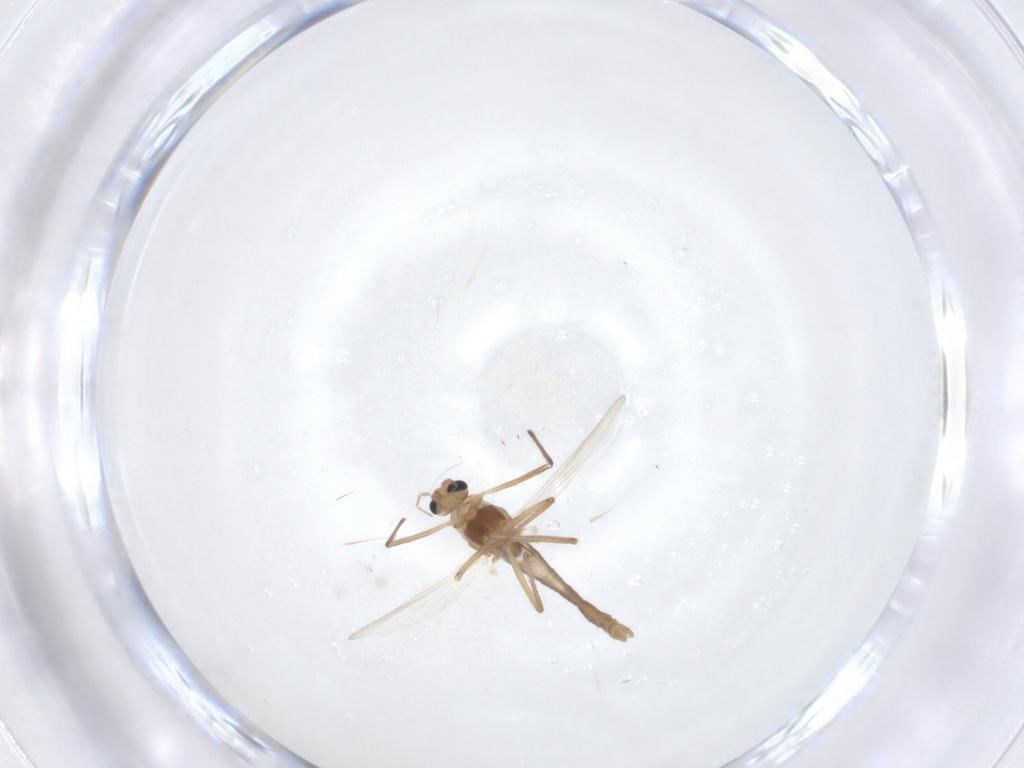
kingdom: Animalia
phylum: Arthropoda
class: Insecta
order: Diptera
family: Chironomidae
